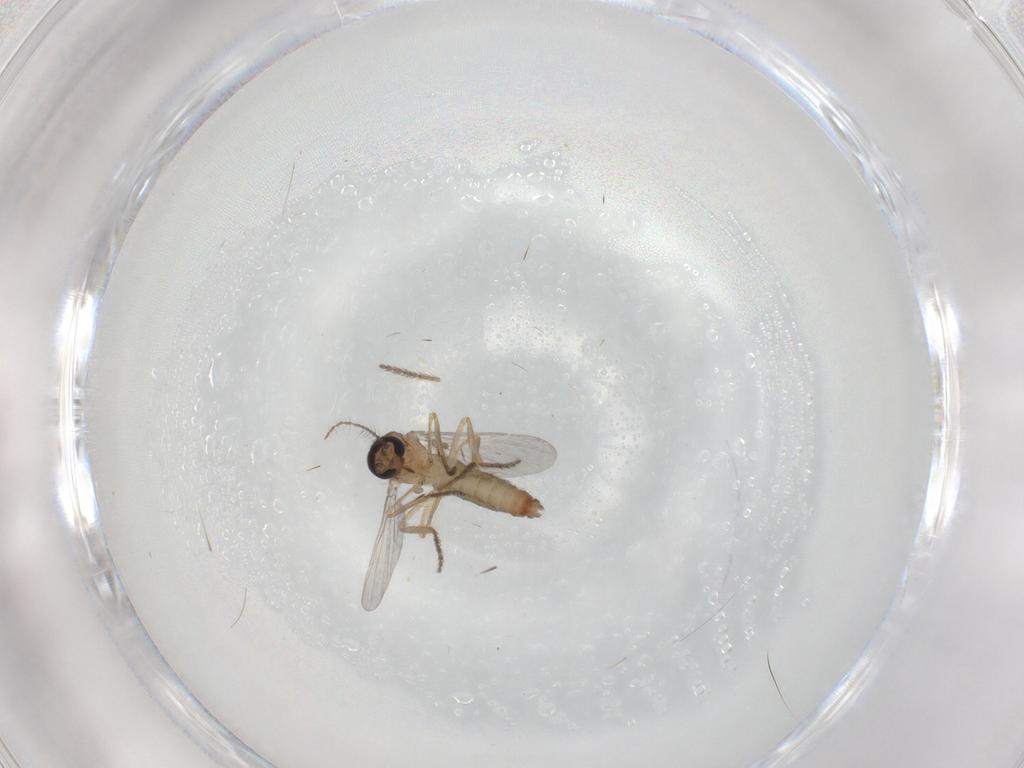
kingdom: Animalia
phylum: Arthropoda
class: Insecta
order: Diptera
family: Ceratopogonidae
